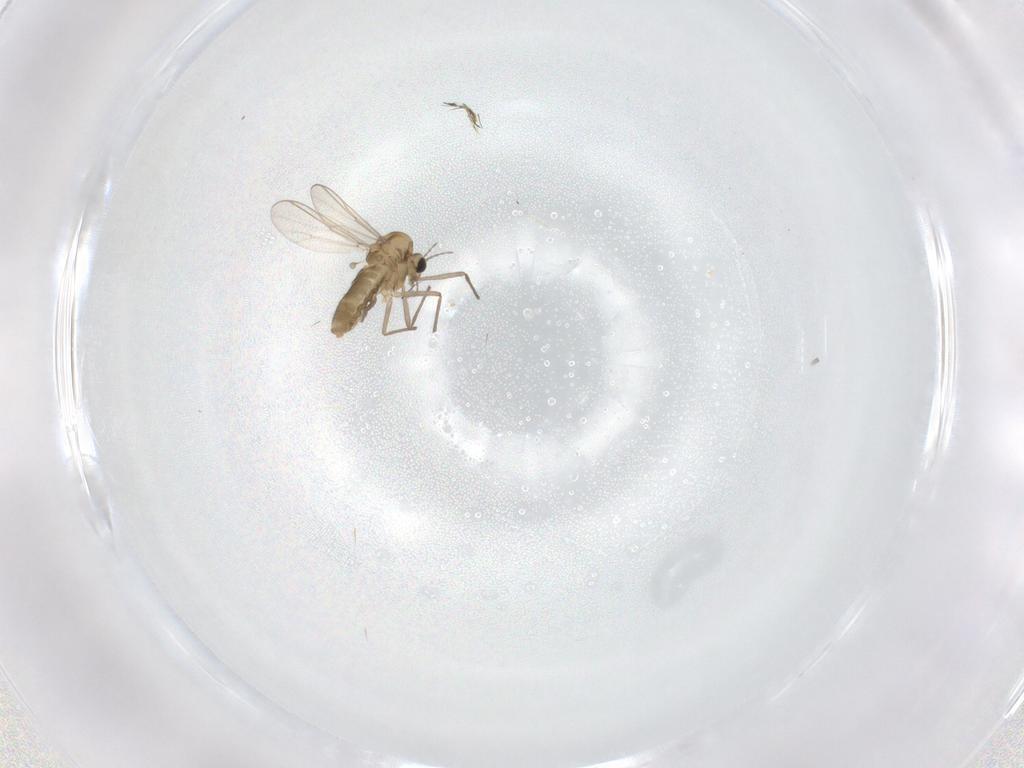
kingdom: Animalia
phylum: Arthropoda
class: Insecta
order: Diptera
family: Chironomidae
